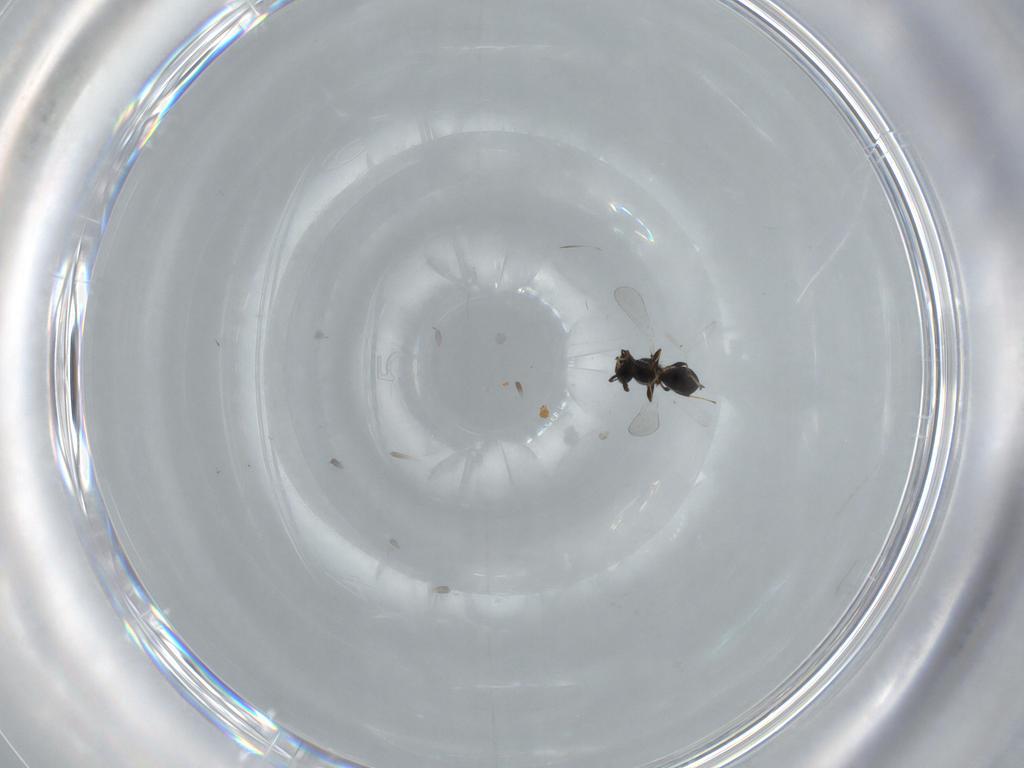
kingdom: Animalia
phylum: Arthropoda
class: Insecta
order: Hymenoptera
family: Platygastridae
